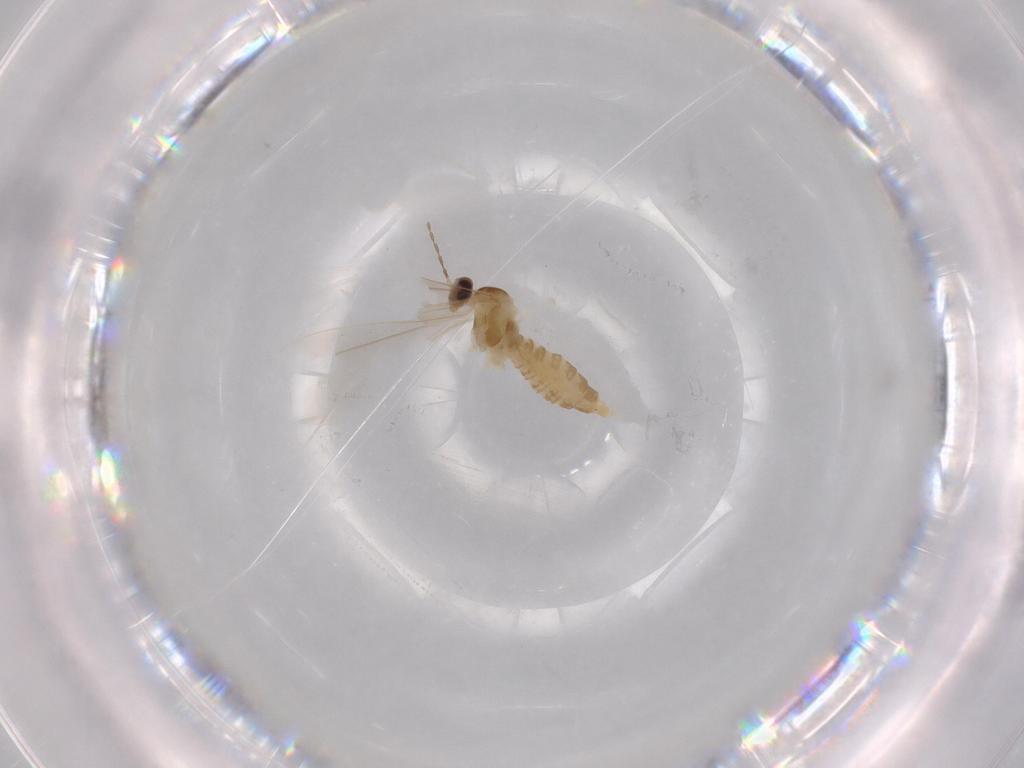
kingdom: Animalia
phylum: Arthropoda
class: Insecta
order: Diptera
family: Cecidomyiidae
